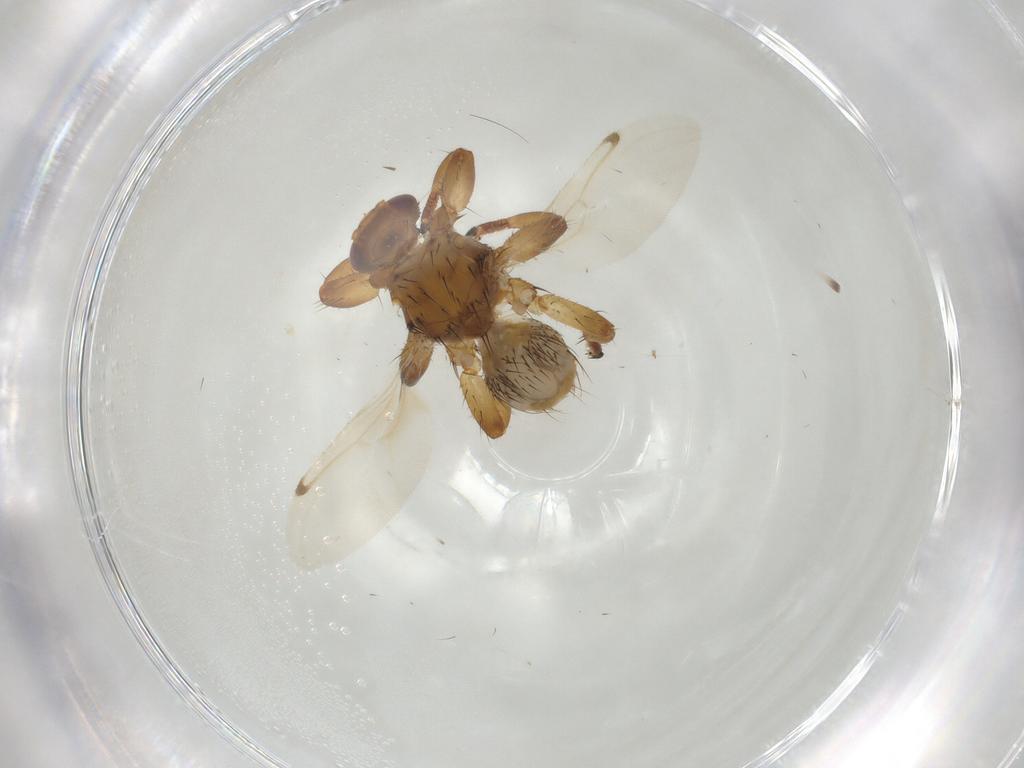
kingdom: Animalia
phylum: Arthropoda
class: Insecta
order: Diptera
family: Hippoboscidae
